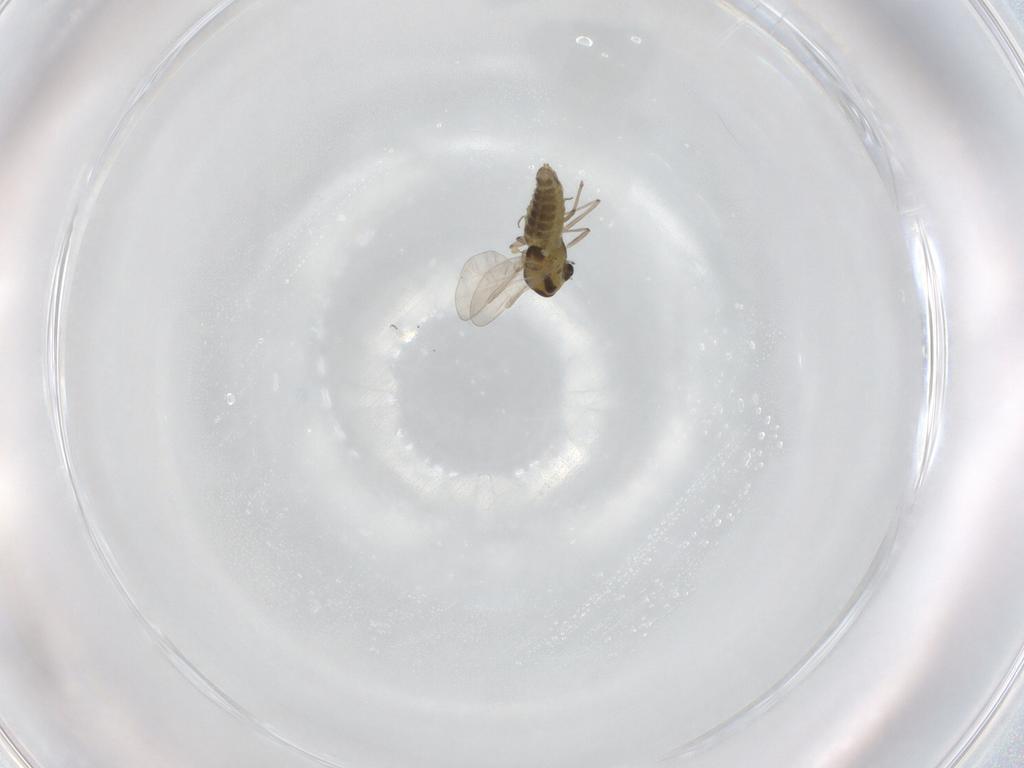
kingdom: Animalia
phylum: Arthropoda
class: Insecta
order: Diptera
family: Chironomidae
